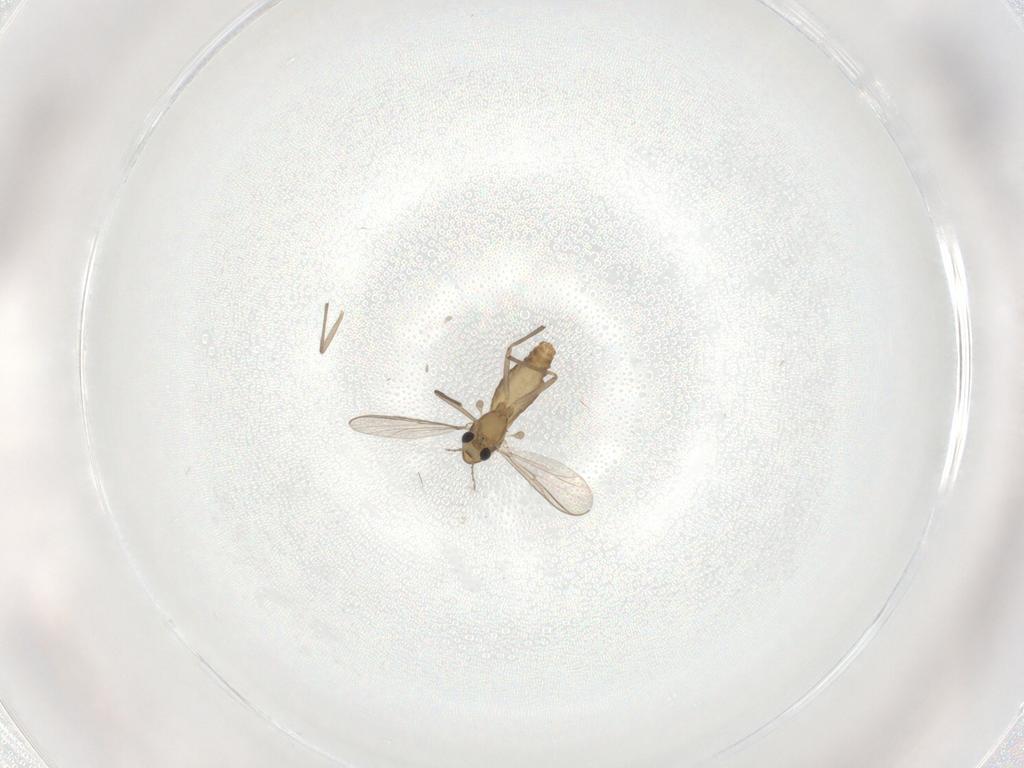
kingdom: Animalia
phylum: Arthropoda
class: Insecta
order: Diptera
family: Chironomidae
